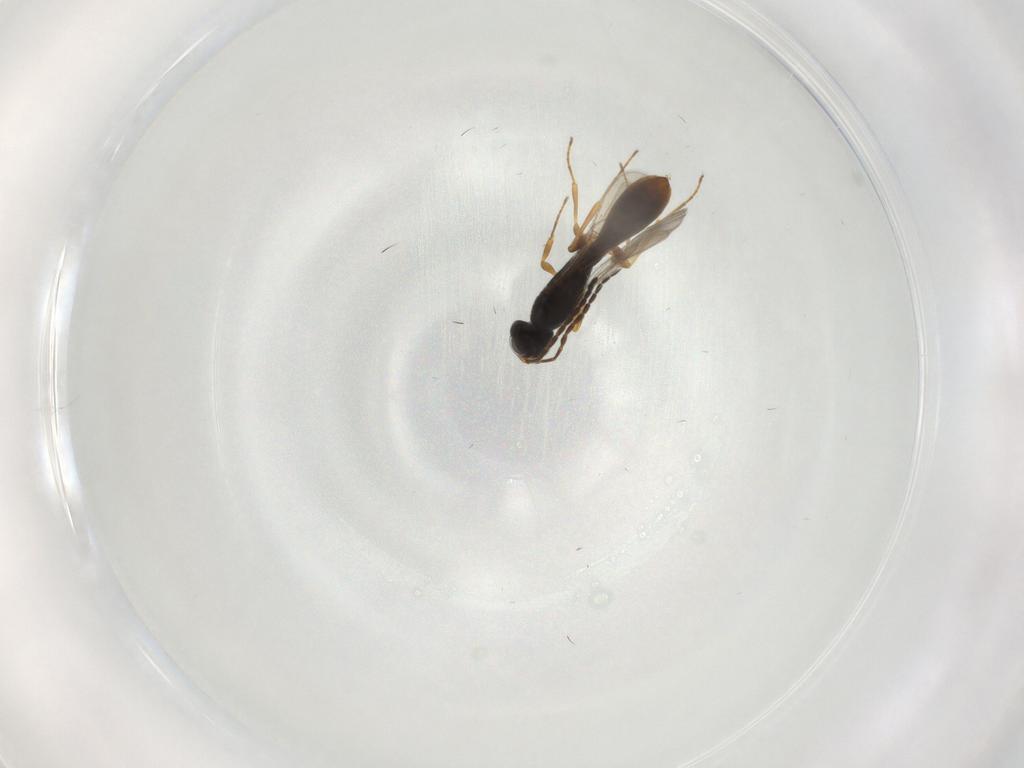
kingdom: Animalia
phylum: Arthropoda
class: Insecta
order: Hymenoptera
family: Scelionidae
